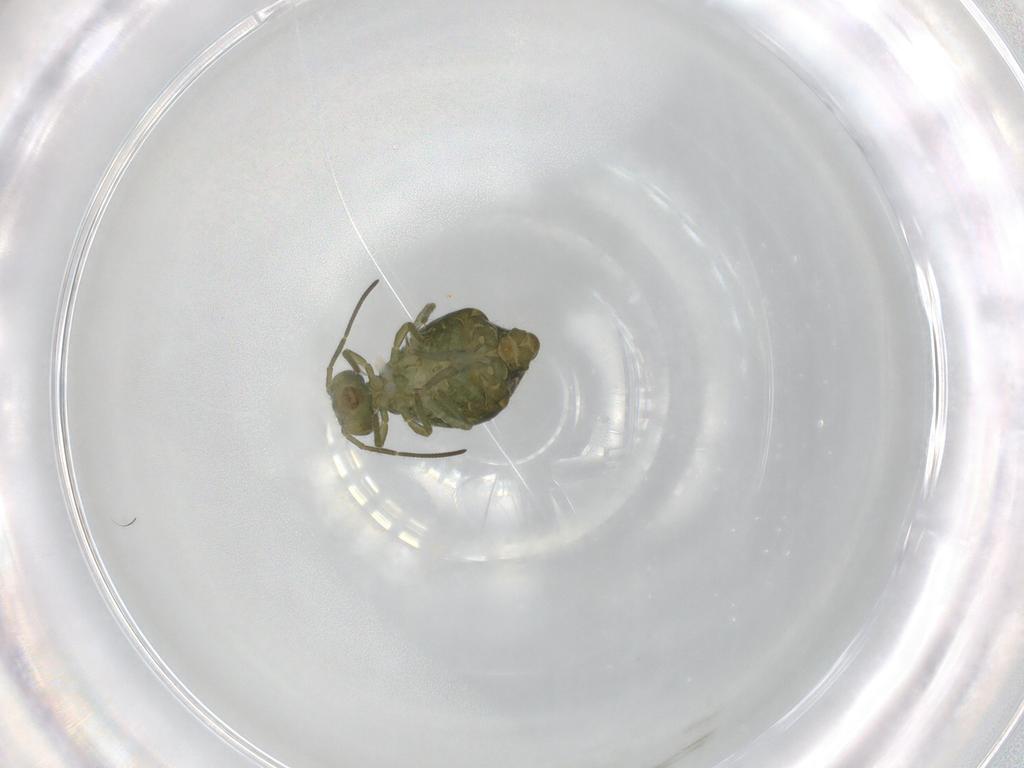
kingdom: Animalia
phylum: Arthropoda
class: Collembola
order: Symphypleona
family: Sminthuridae
